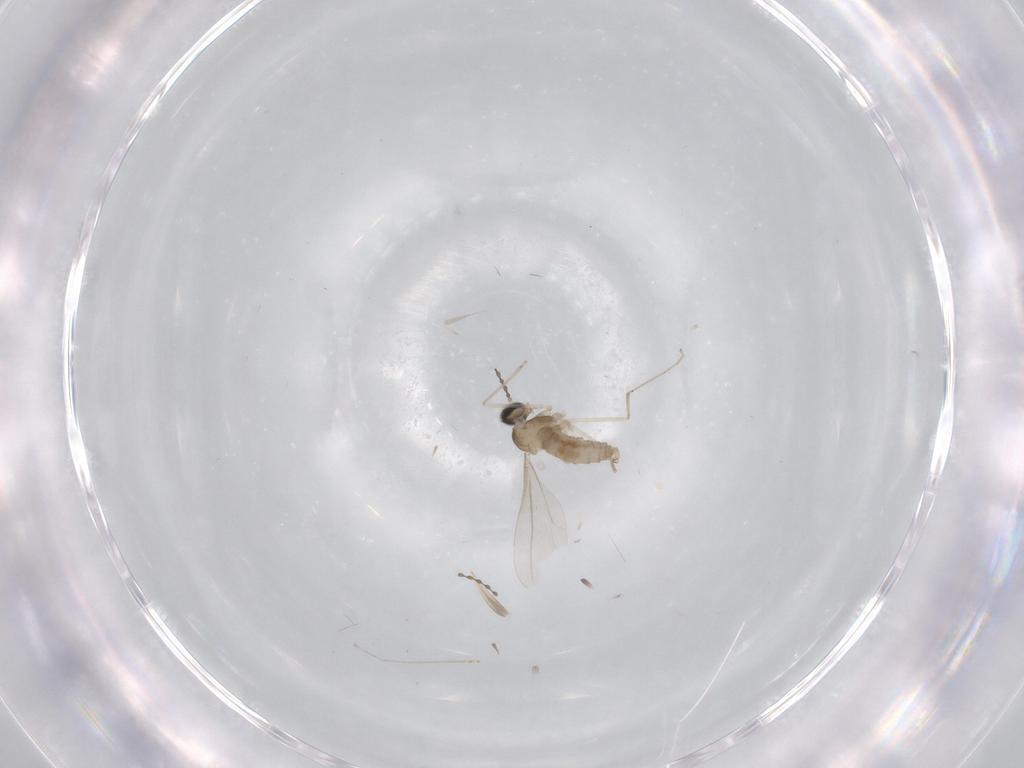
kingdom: Animalia
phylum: Arthropoda
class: Insecta
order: Diptera
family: Cecidomyiidae
